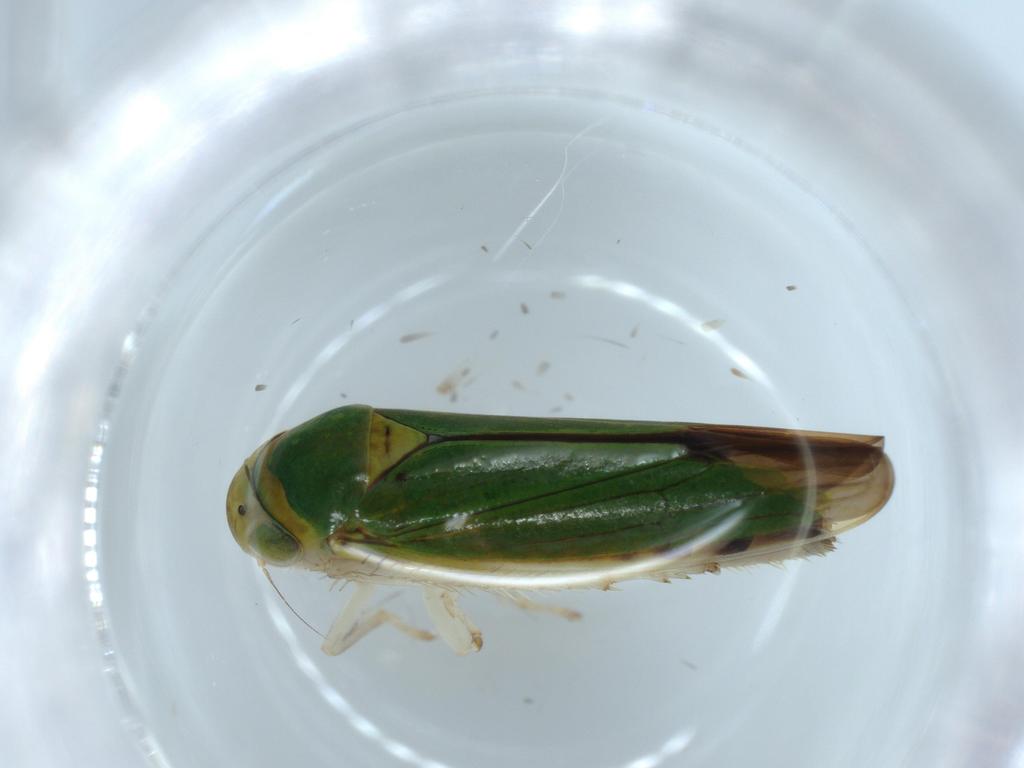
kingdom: Animalia
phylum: Arthropoda
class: Insecta
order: Hemiptera
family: Cicadellidae
